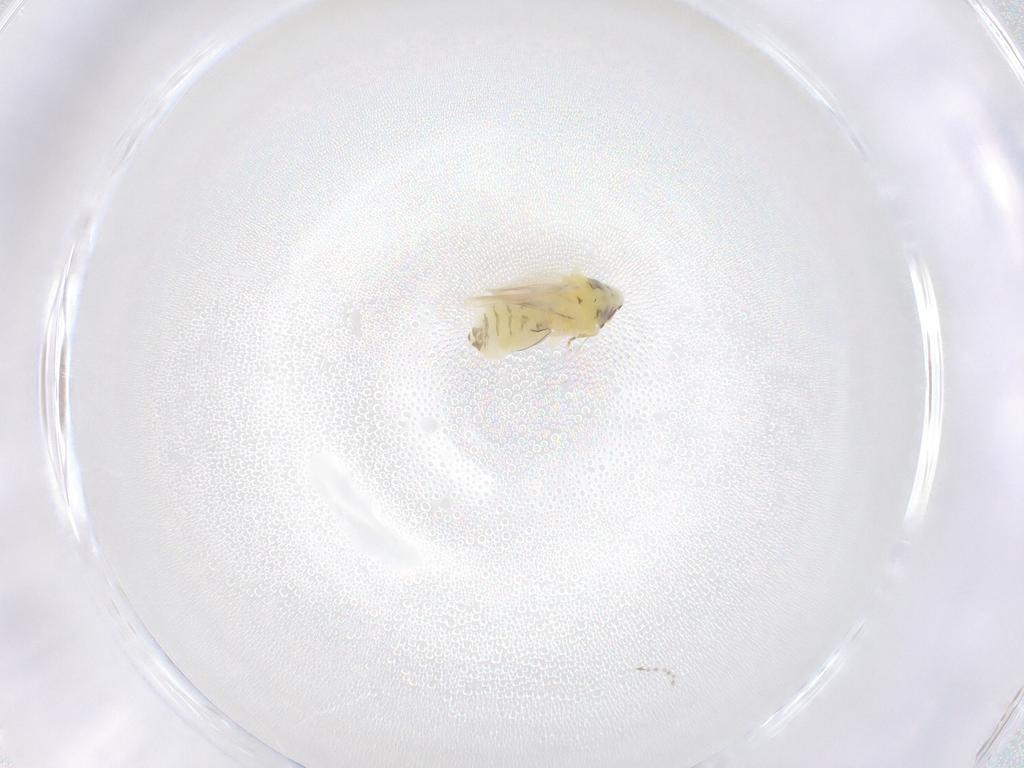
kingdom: Animalia
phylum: Arthropoda
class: Insecta
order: Hemiptera
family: Aleyrodidae
